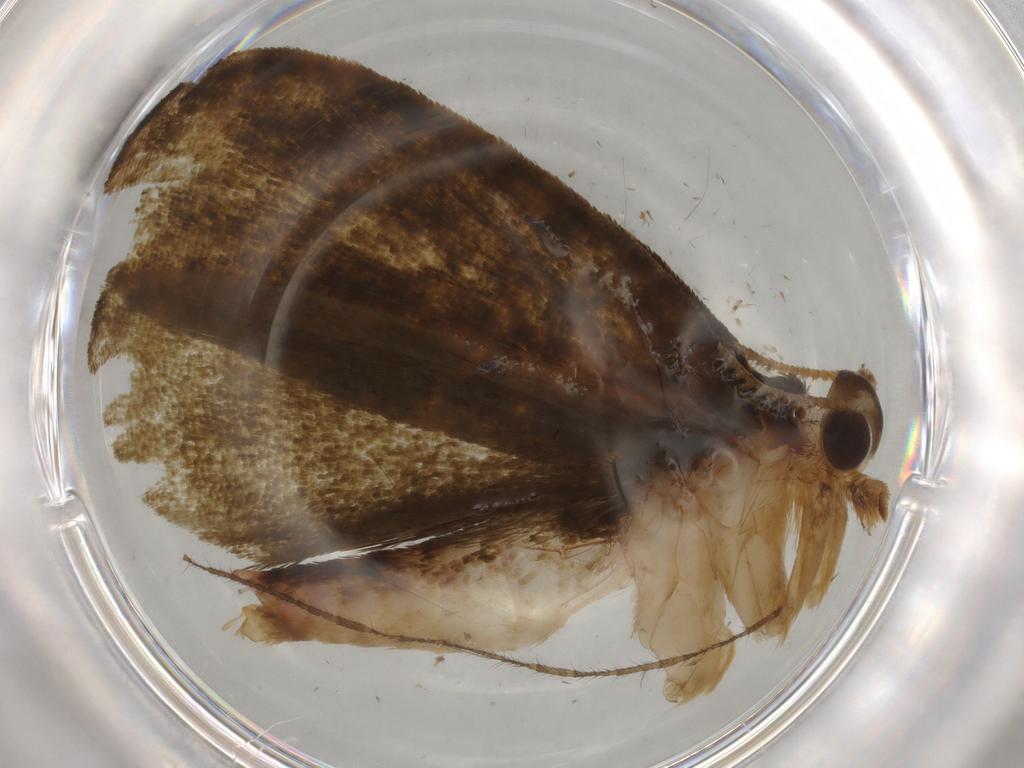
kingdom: Animalia
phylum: Arthropoda
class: Insecta
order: Lepidoptera
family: Geometridae
